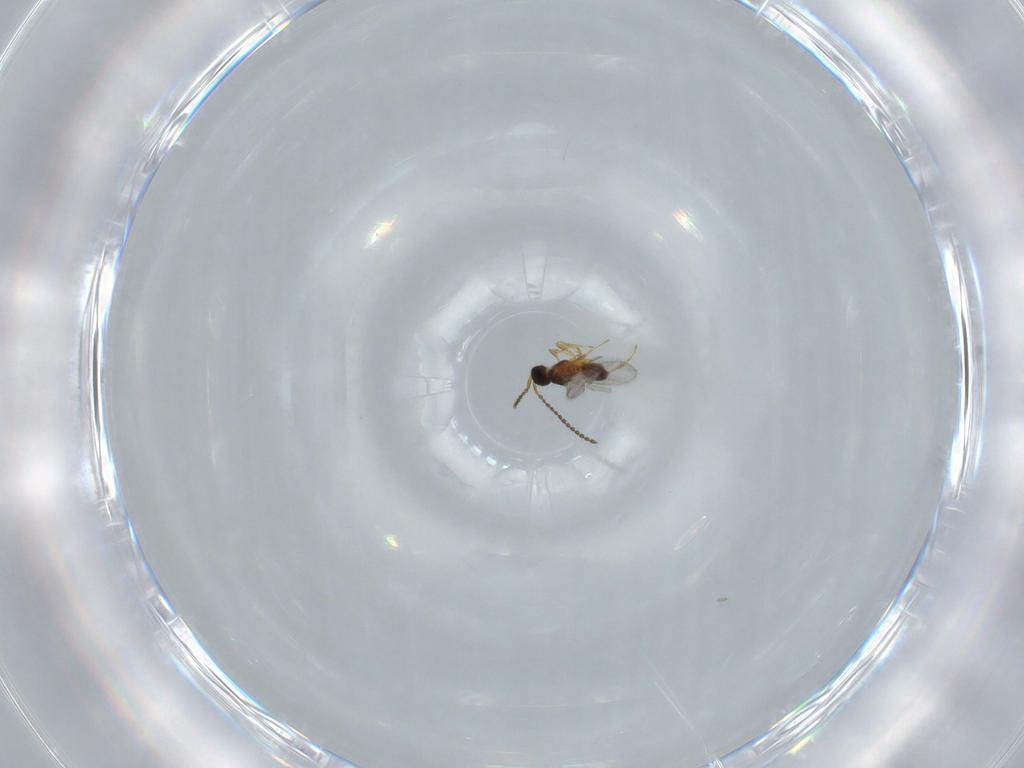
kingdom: Animalia
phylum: Arthropoda
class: Insecta
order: Hymenoptera
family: Diapriidae
